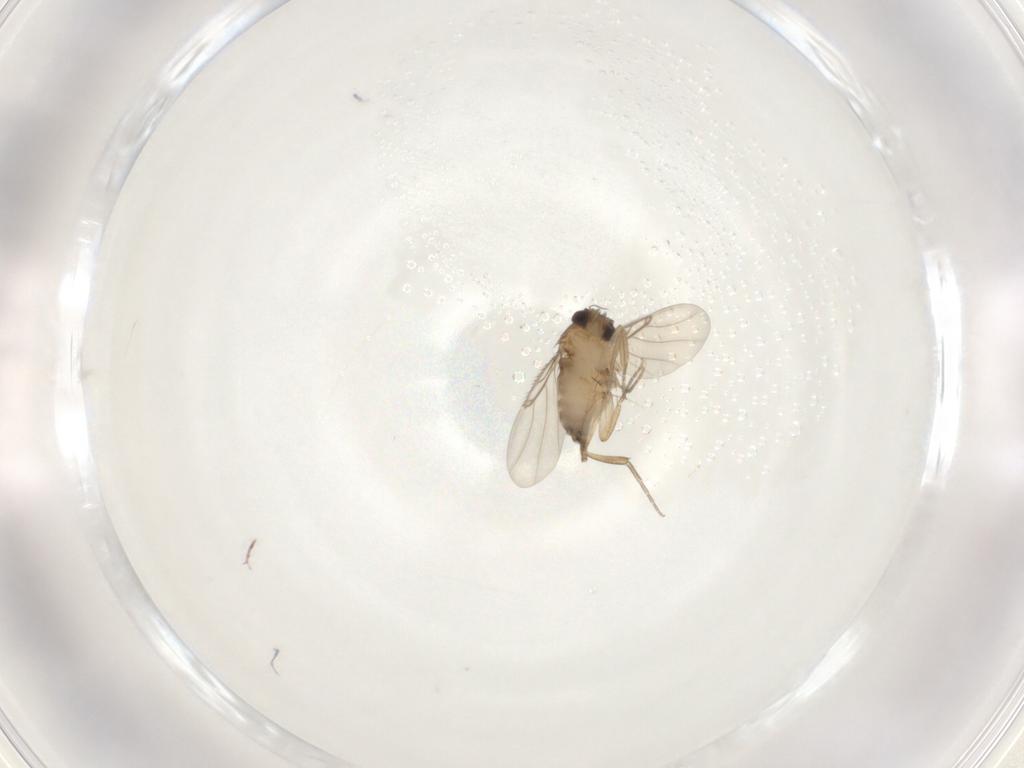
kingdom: Animalia
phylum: Arthropoda
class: Insecta
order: Diptera
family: Phoridae
